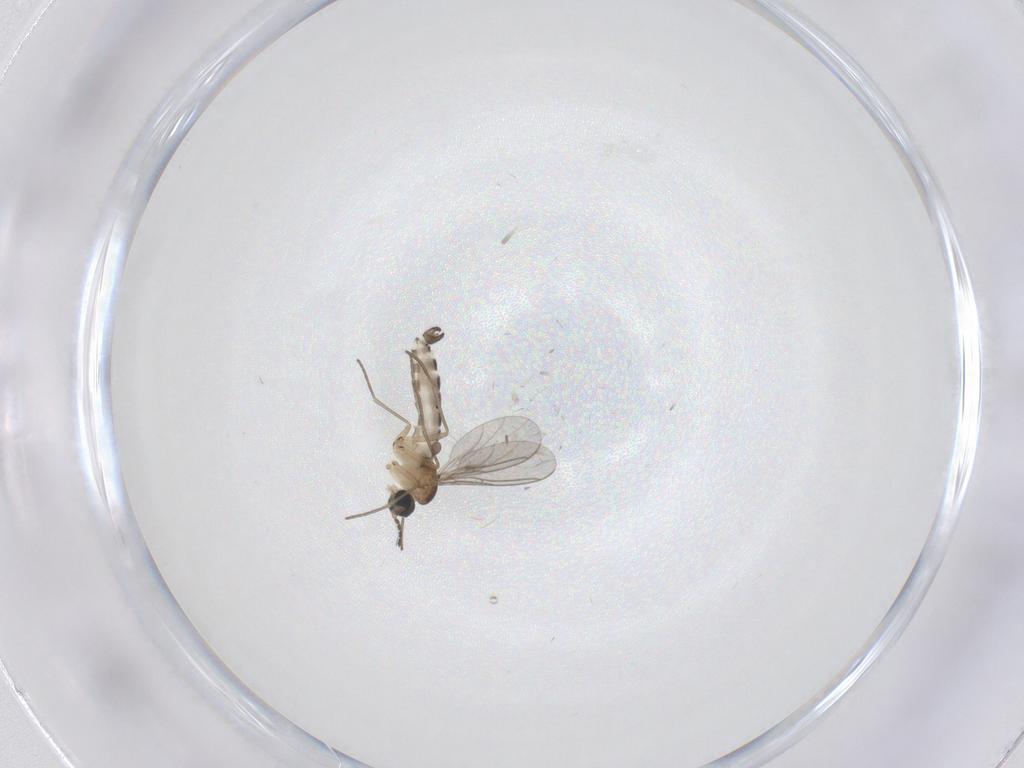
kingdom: Animalia
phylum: Arthropoda
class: Insecta
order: Diptera
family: Sciaridae
